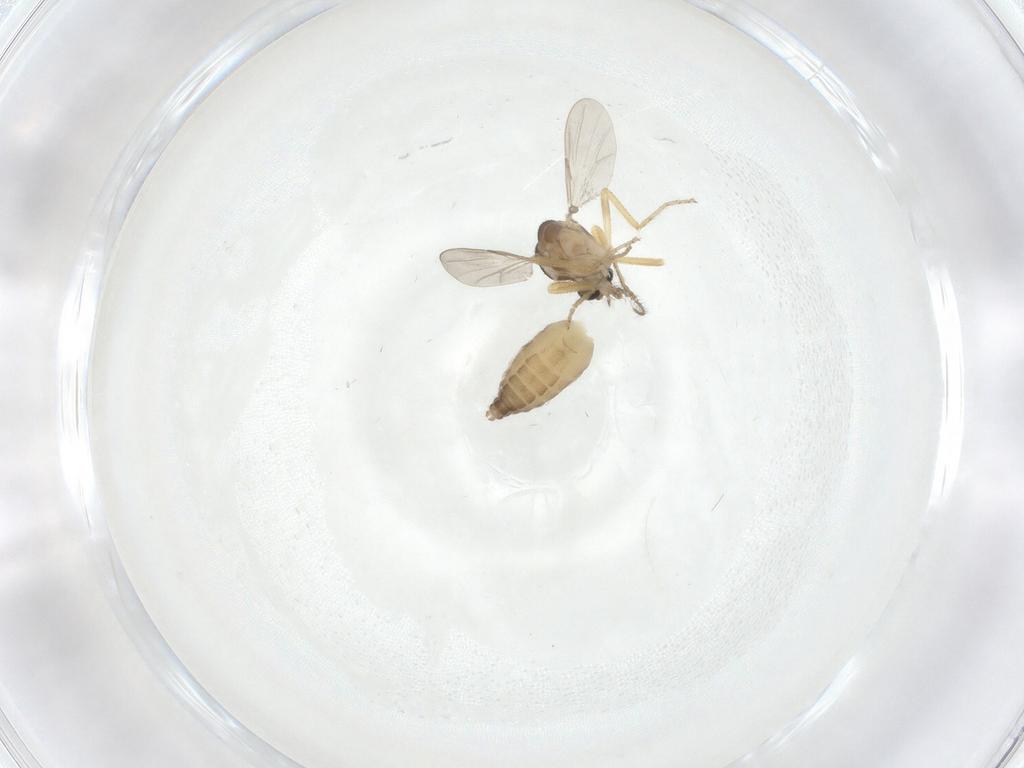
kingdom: Animalia
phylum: Arthropoda
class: Insecta
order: Diptera
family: Ceratopogonidae
